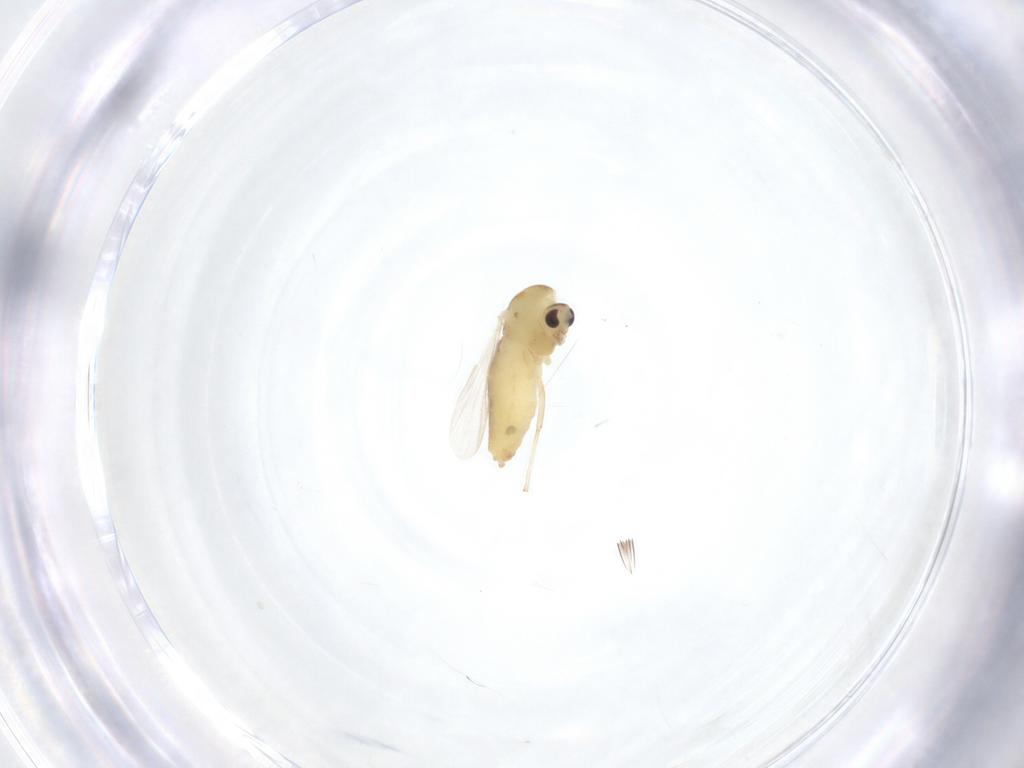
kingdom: Animalia
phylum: Arthropoda
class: Insecta
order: Diptera
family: Chironomidae
